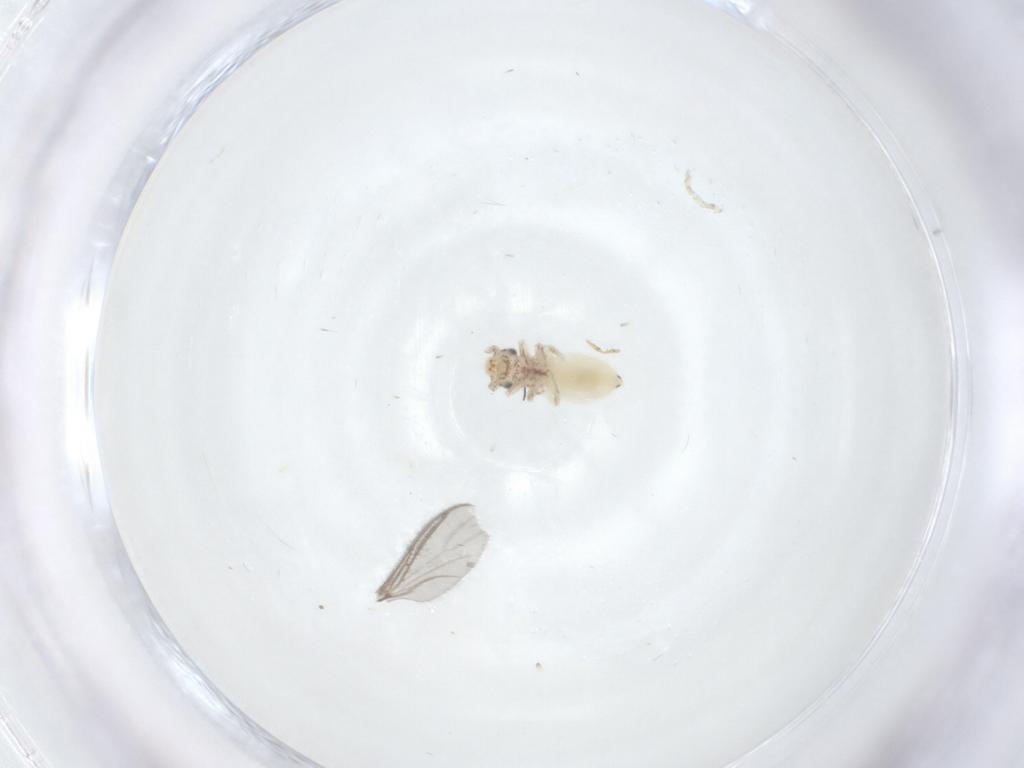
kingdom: Animalia
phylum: Arthropoda
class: Insecta
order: Psocodea
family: Lepidopsocidae
